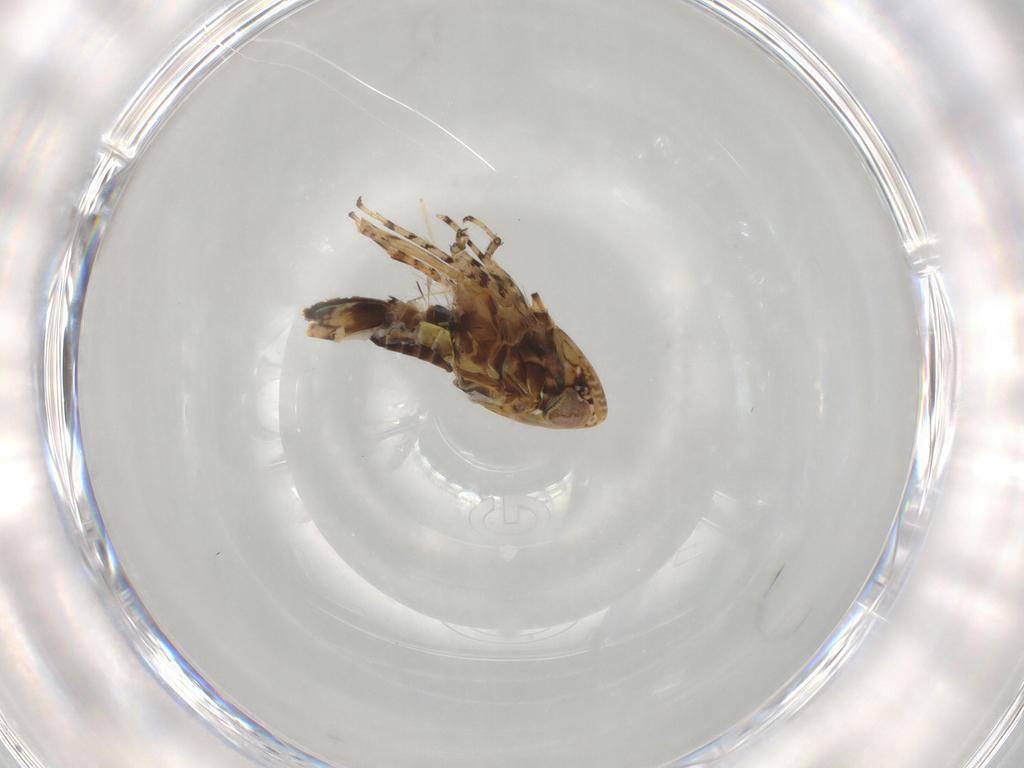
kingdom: Animalia
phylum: Arthropoda
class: Insecta
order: Hemiptera
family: Cicadellidae
